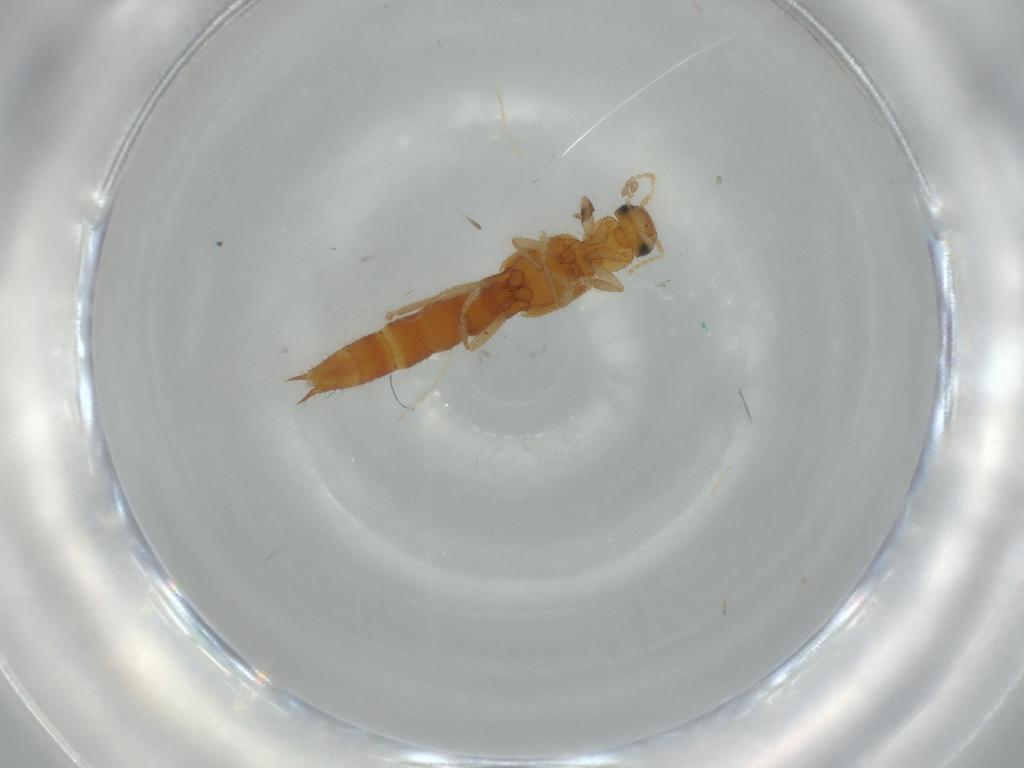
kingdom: Animalia
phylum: Arthropoda
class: Insecta
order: Coleoptera
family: Staphylinidae
